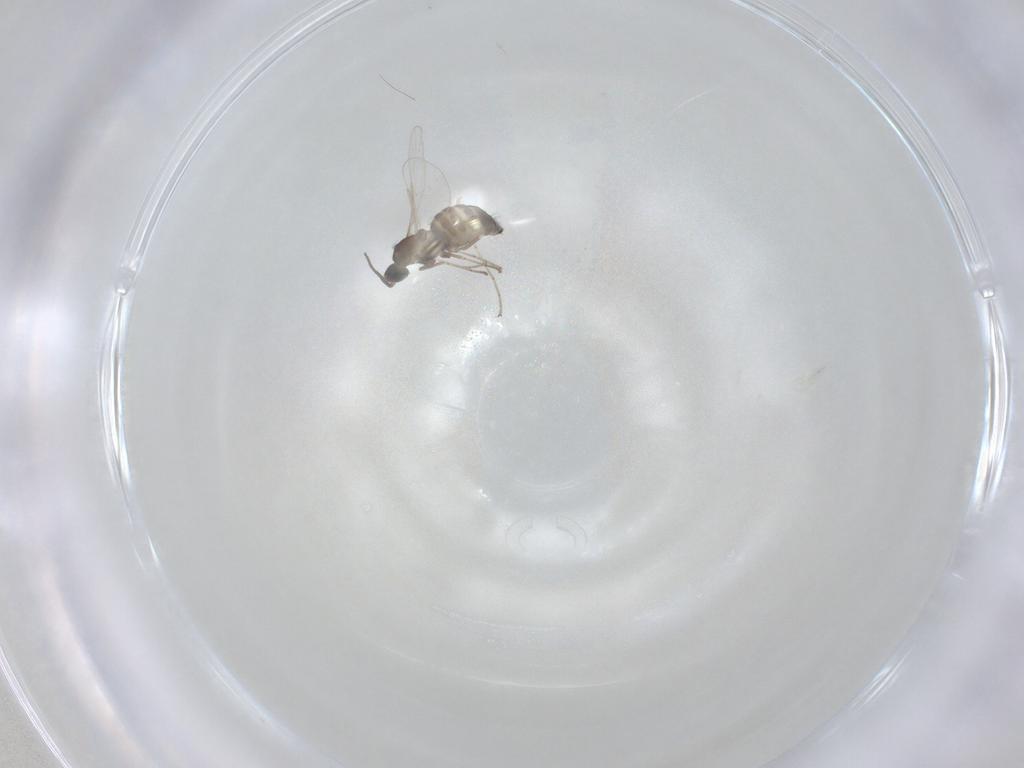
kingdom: Animalia
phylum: Arthropoda
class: Insecta
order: Diptera
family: Cecidomyiidae
